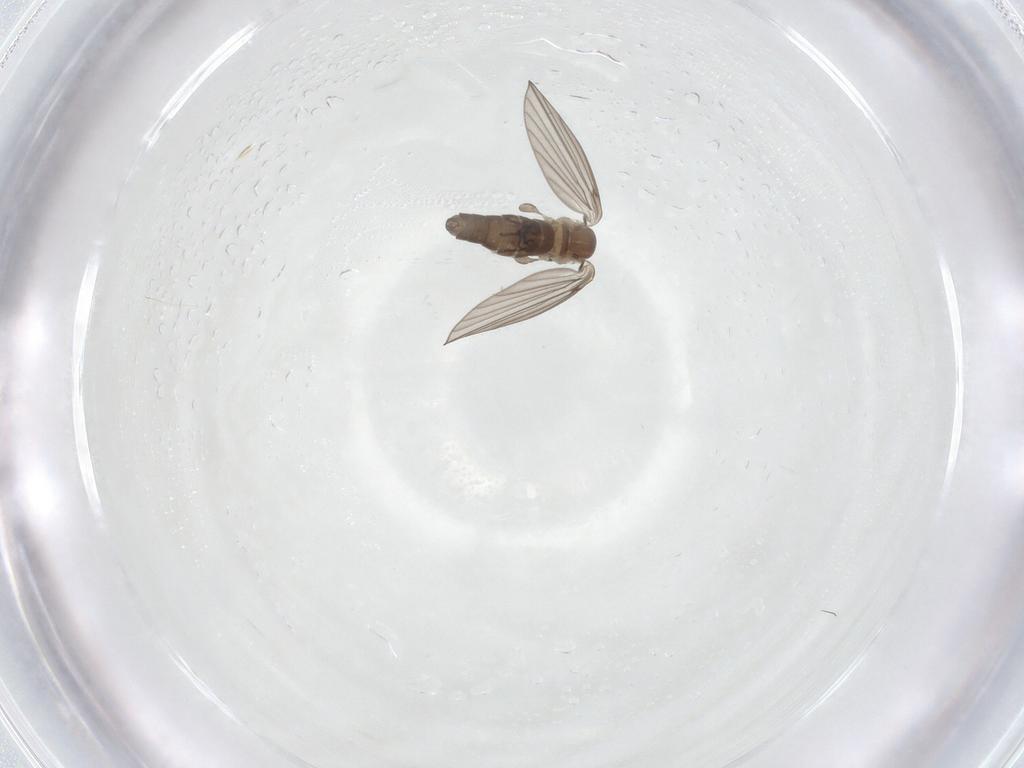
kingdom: Animalia
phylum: Arthropoda
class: Insecta
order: Diptera
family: Psychodidae
